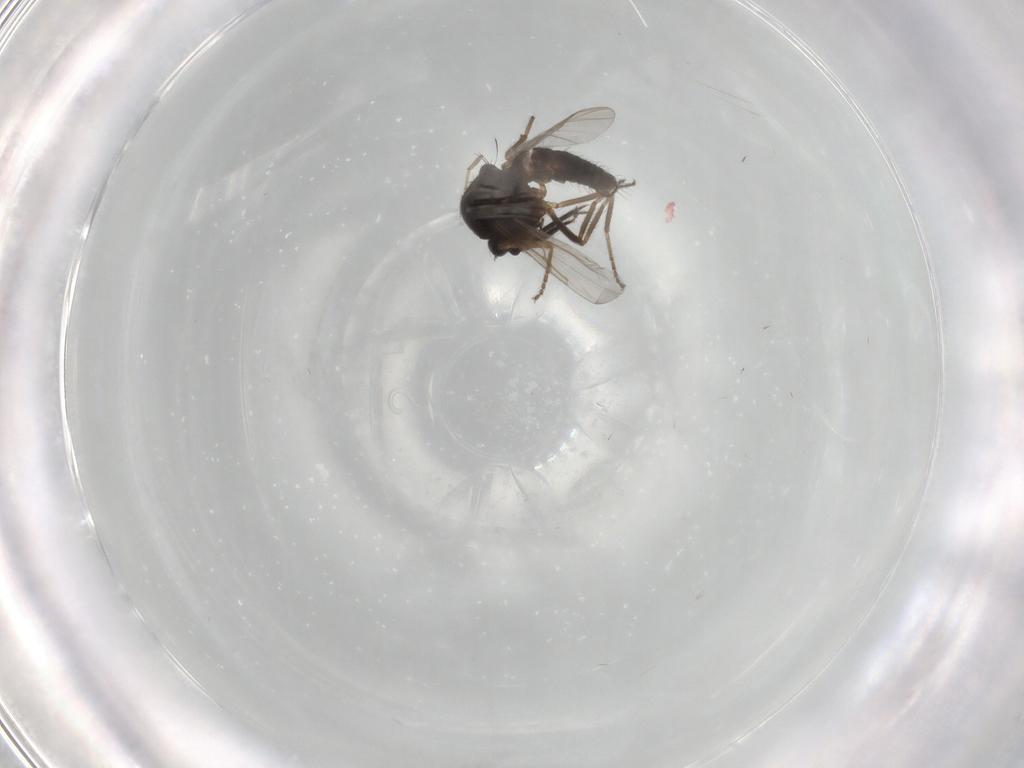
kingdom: Animalia
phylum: Arthropoda
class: Insecta
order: Diptera
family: Ceratopogonidae
